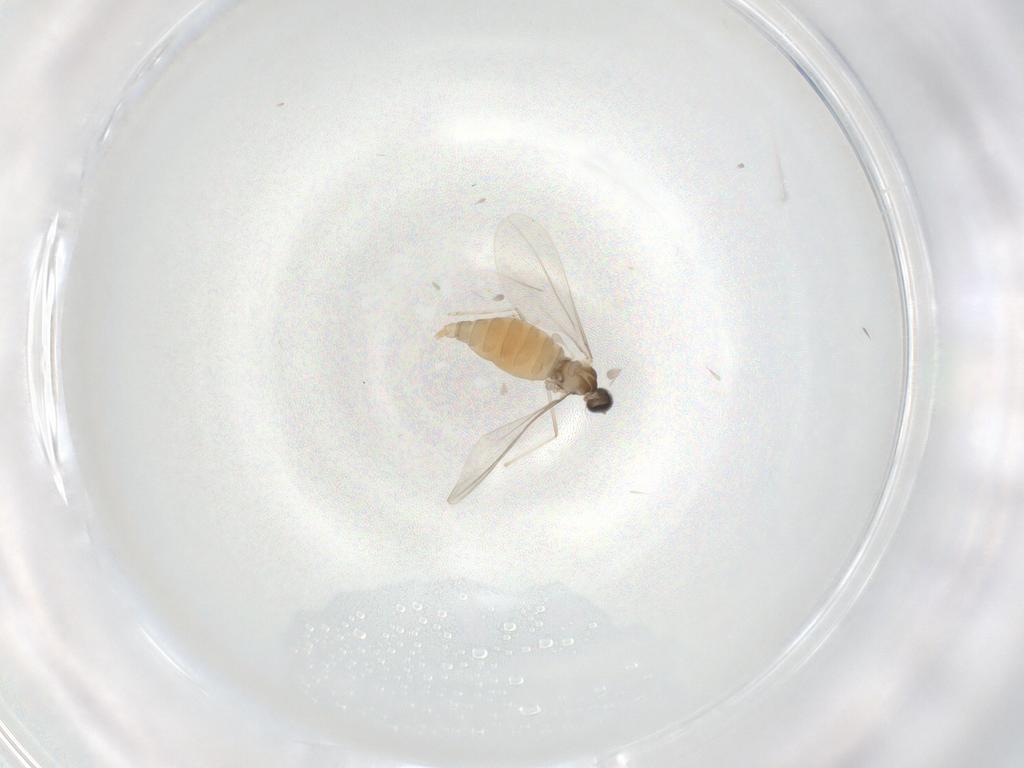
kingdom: Animalia
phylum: Arthropoda
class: Insecta
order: Diptera
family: Cecidomyiidae
